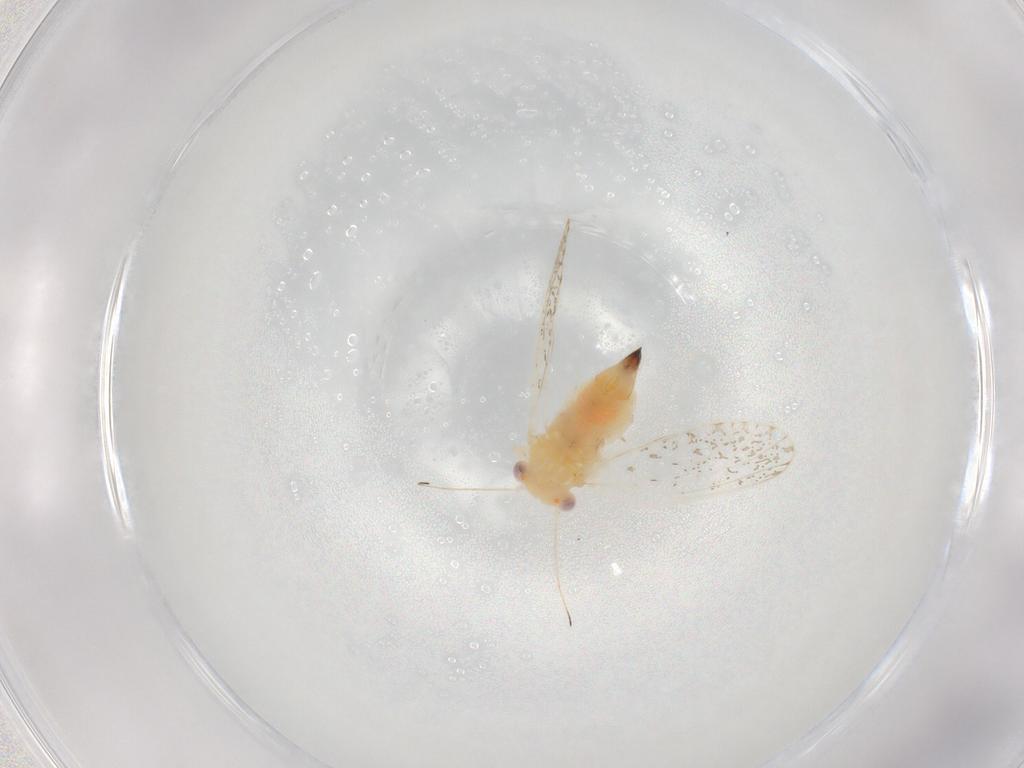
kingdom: Animalia
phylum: Arthropoda
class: Insecta
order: Hemiptera
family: Psyllidae
